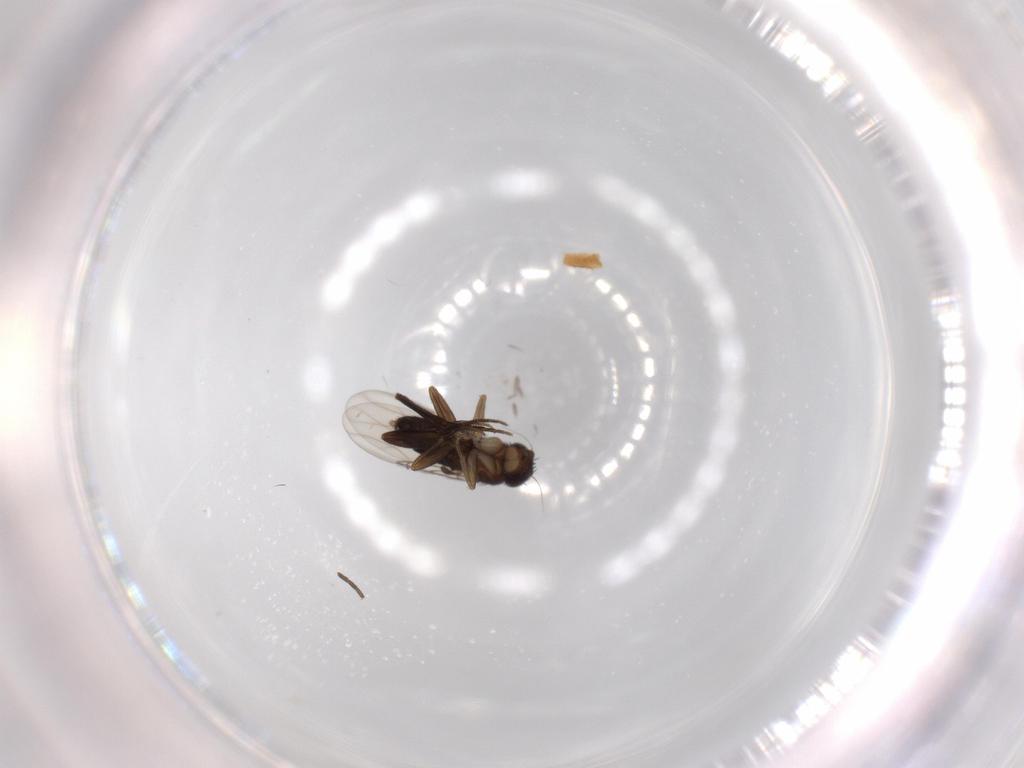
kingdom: Animalia
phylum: Arthropoda
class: Insecta
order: Diptera
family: Phoridae
